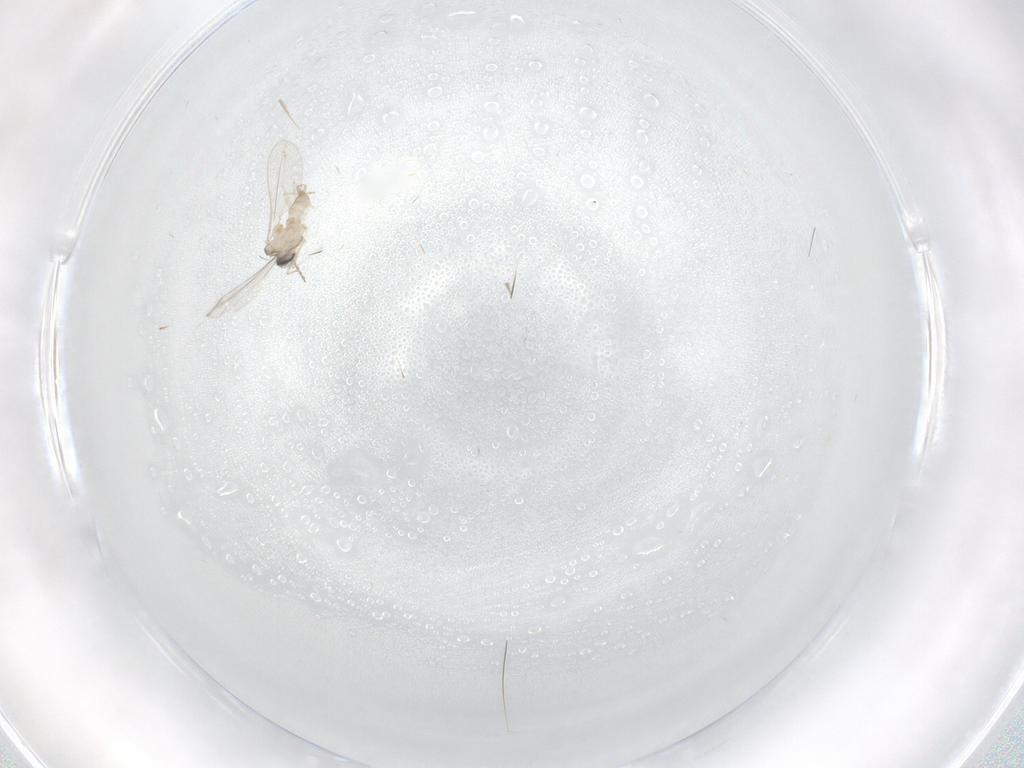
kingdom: Animalia
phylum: Arthropoda
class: Insecta
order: Diptera
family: Cecidomyiidae
